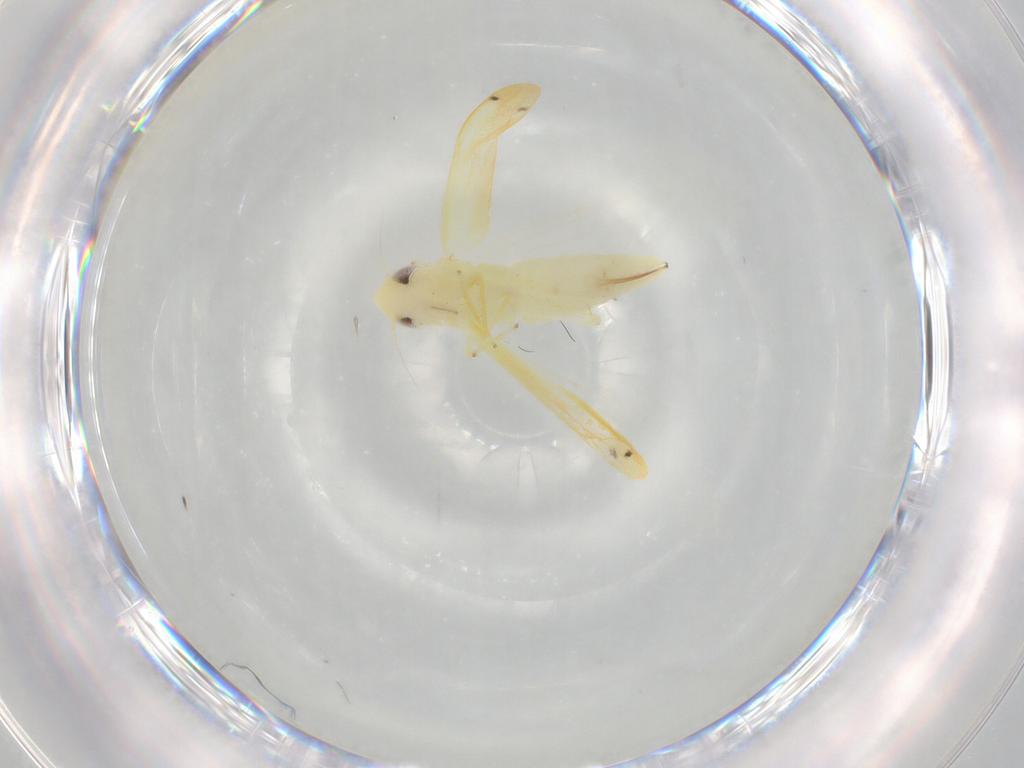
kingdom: Animalia
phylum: Arthropoda
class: Insecta
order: Hemiptera
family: Cicadellidae
